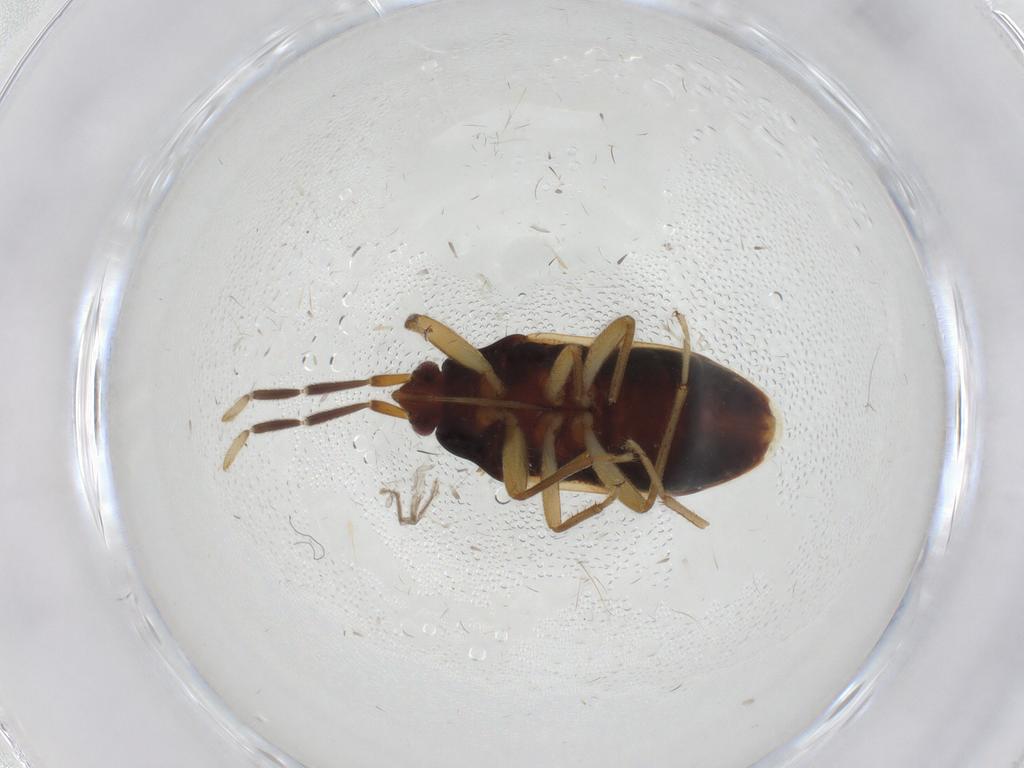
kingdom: Animalia
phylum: Arthropoda
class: Insecta
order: Hemiptera
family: Rhyparochromidae
